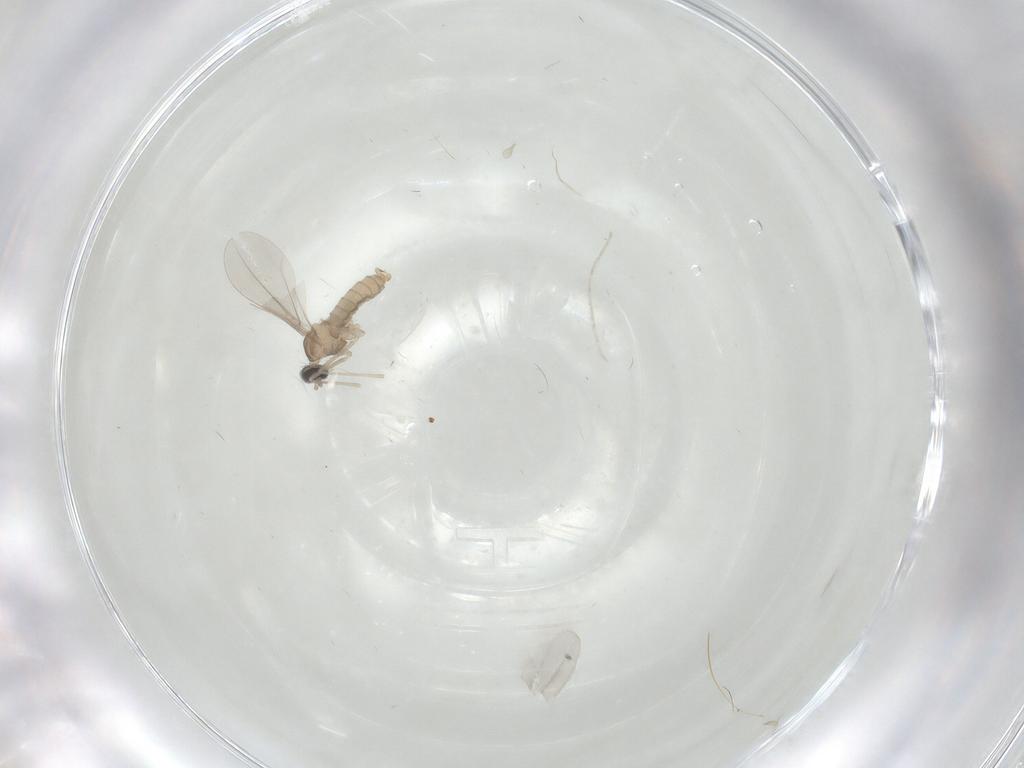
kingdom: Animalia
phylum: Arthropoda
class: Insecta
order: Diptera
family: Cecidomyiidae
